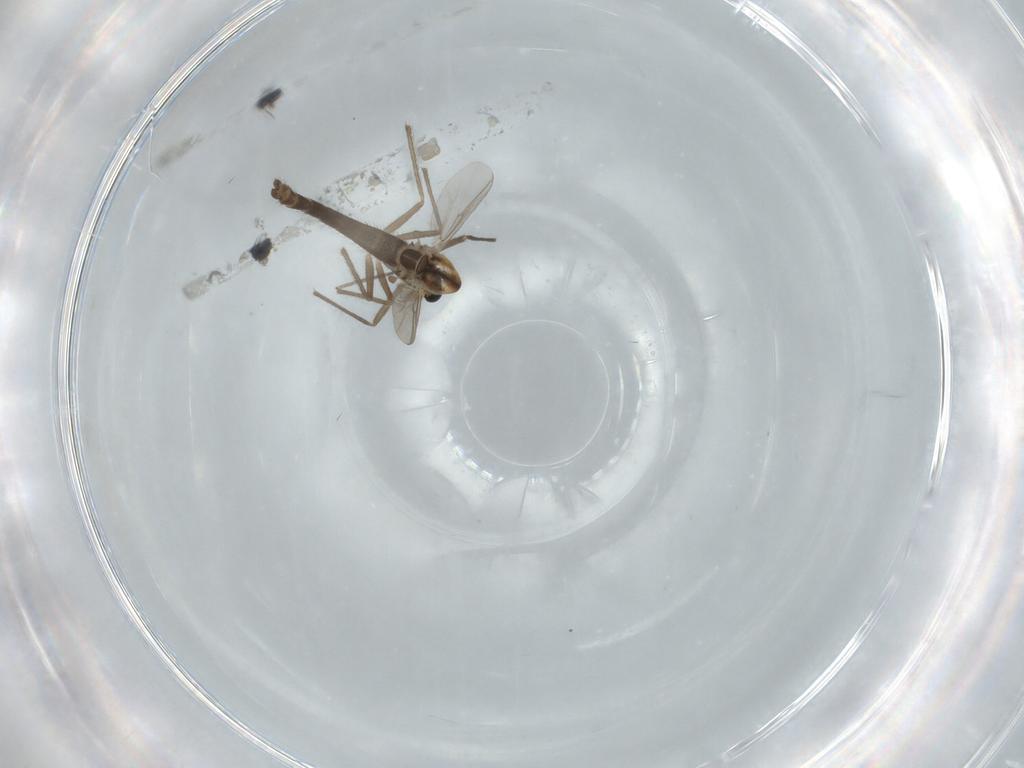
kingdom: Animalia
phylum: Arthropoda
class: Insecta
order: Diptera
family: Chironomidae
